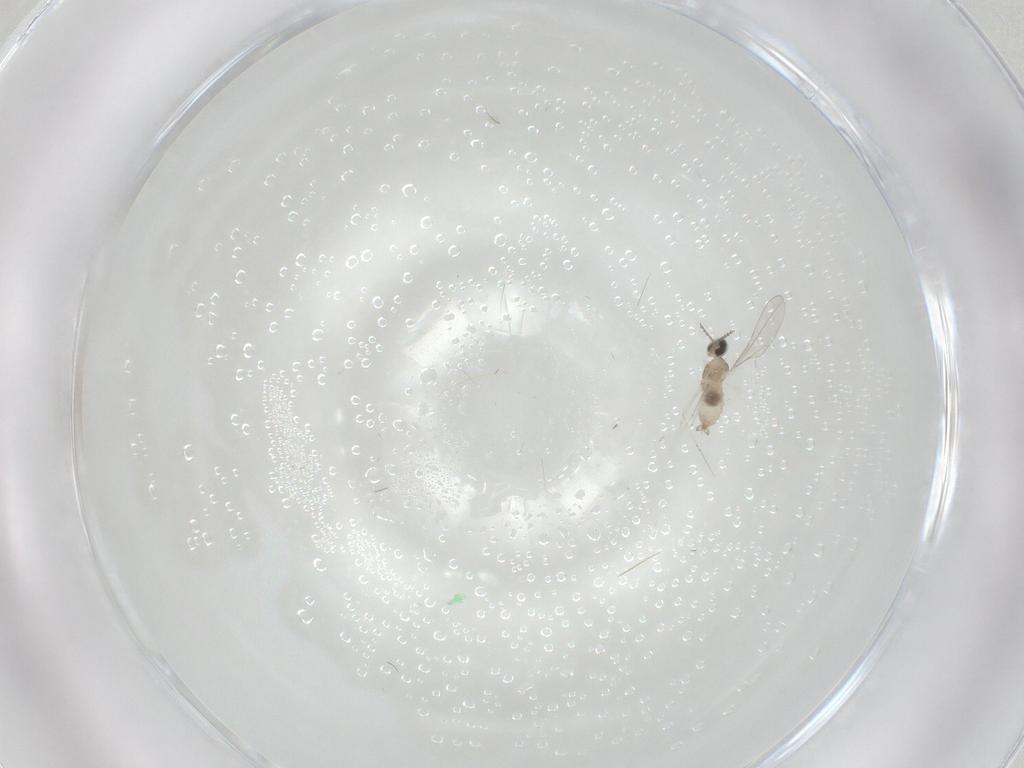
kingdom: Animalia
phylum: Arthropoda
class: Insecta
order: Diptera
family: Cecidomyiidae
